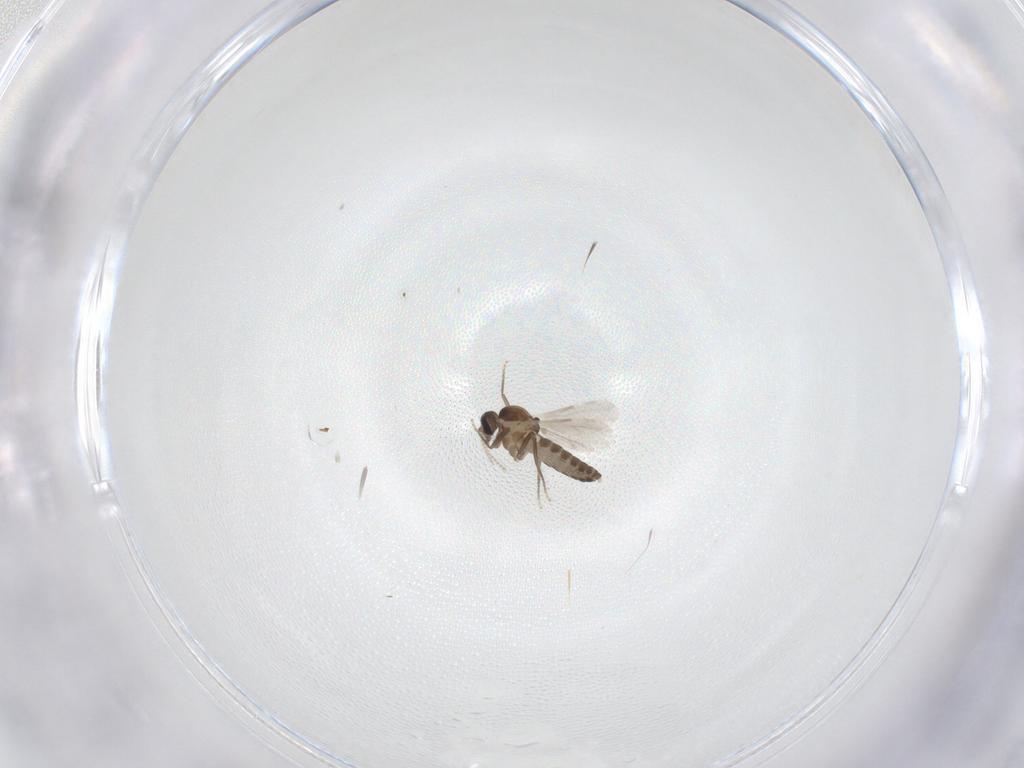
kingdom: Animalia
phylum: Arthropoda
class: Insecta
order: Diptera
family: Ceratopogonidae
